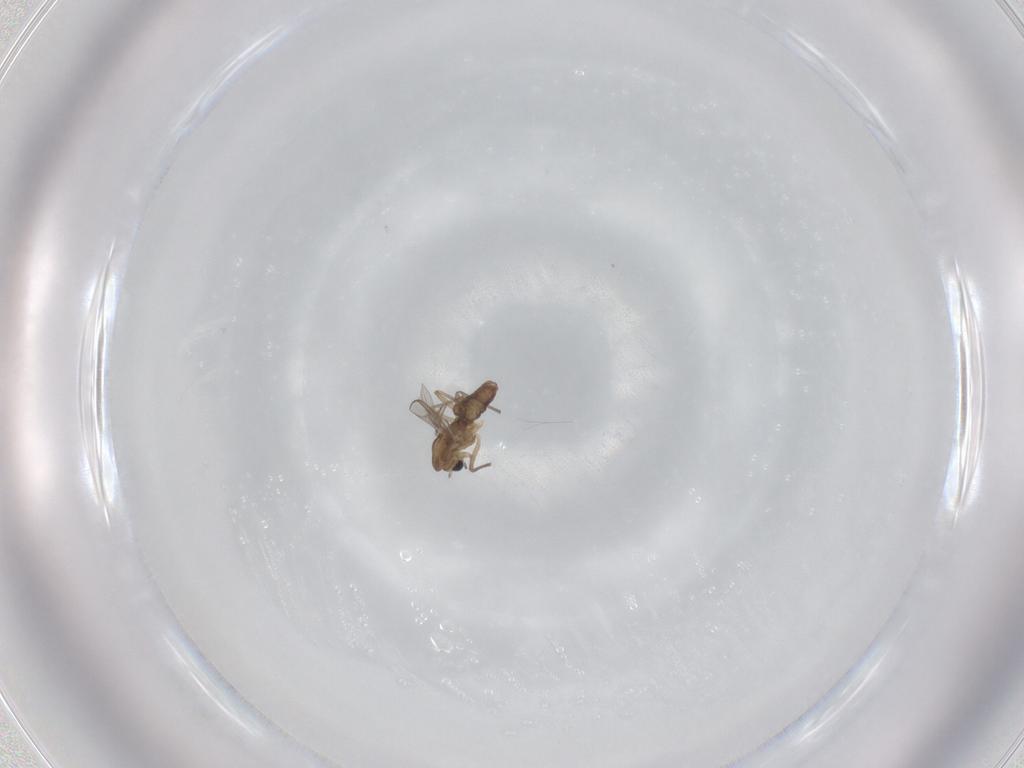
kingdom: Animalia
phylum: Arthropoda
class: Insecta
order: Diptera
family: Chironomidae
